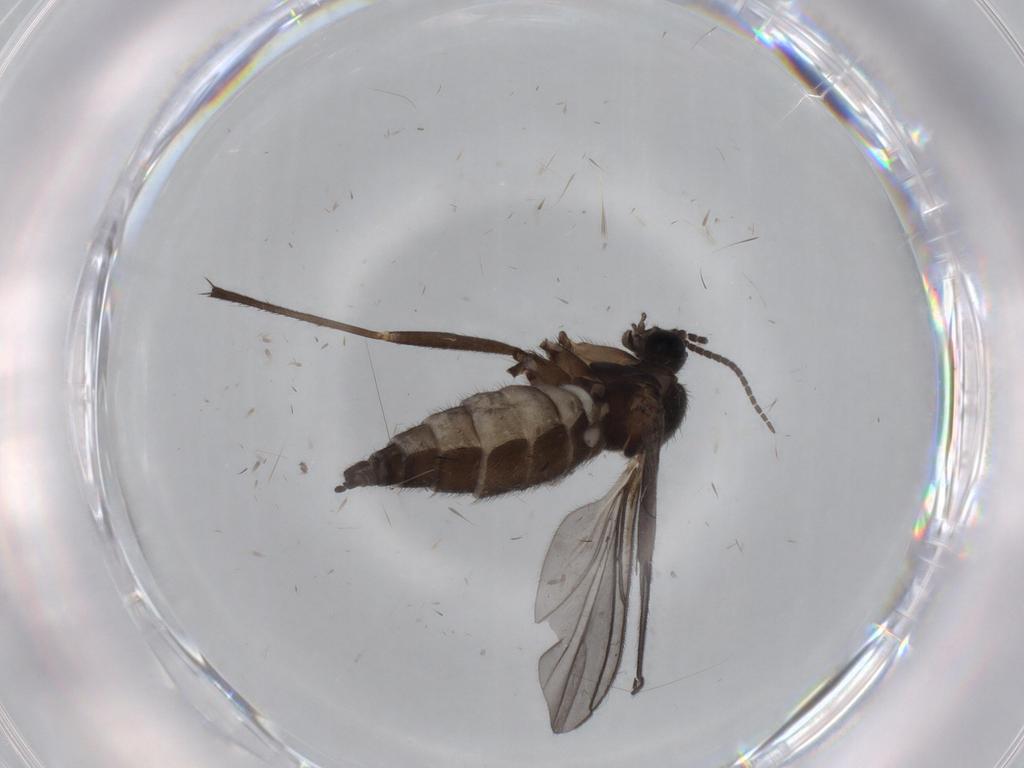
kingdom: Animalia
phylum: Arthropoda
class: Insecta
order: Diptera
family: Sciaridae
